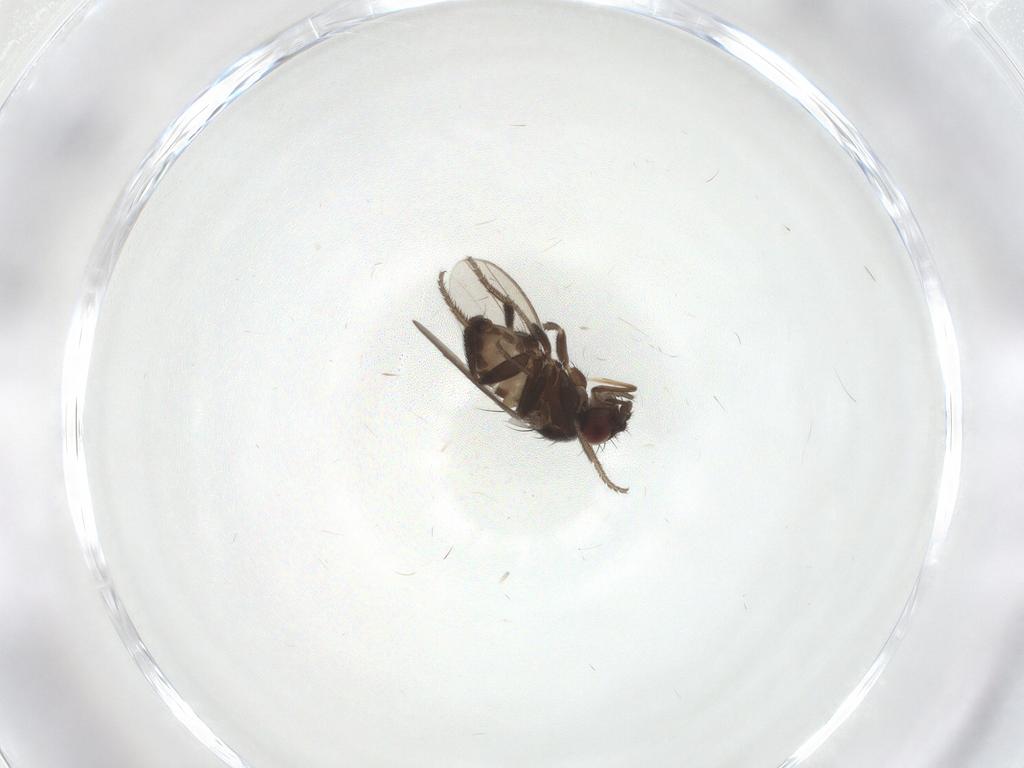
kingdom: Animalia
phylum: Arthropoda
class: Insecta
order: Diptera
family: Milichiidae
